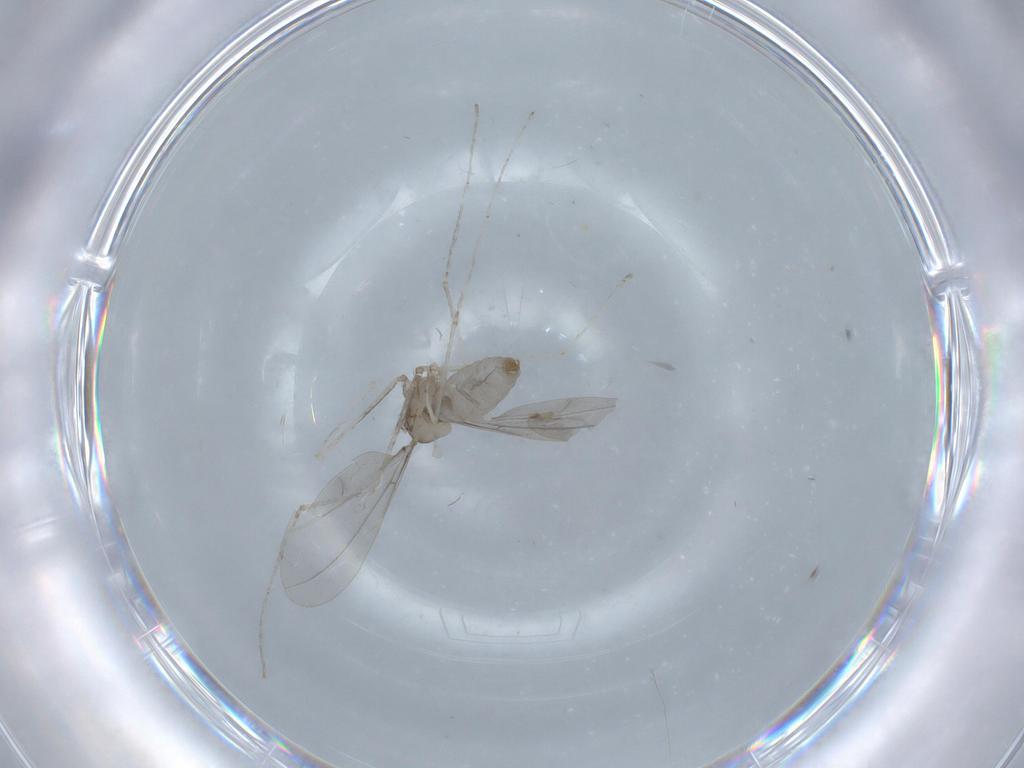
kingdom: Animalia
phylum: Arthropoda
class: Insecta
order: Diptera
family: Cecidomyiidae
